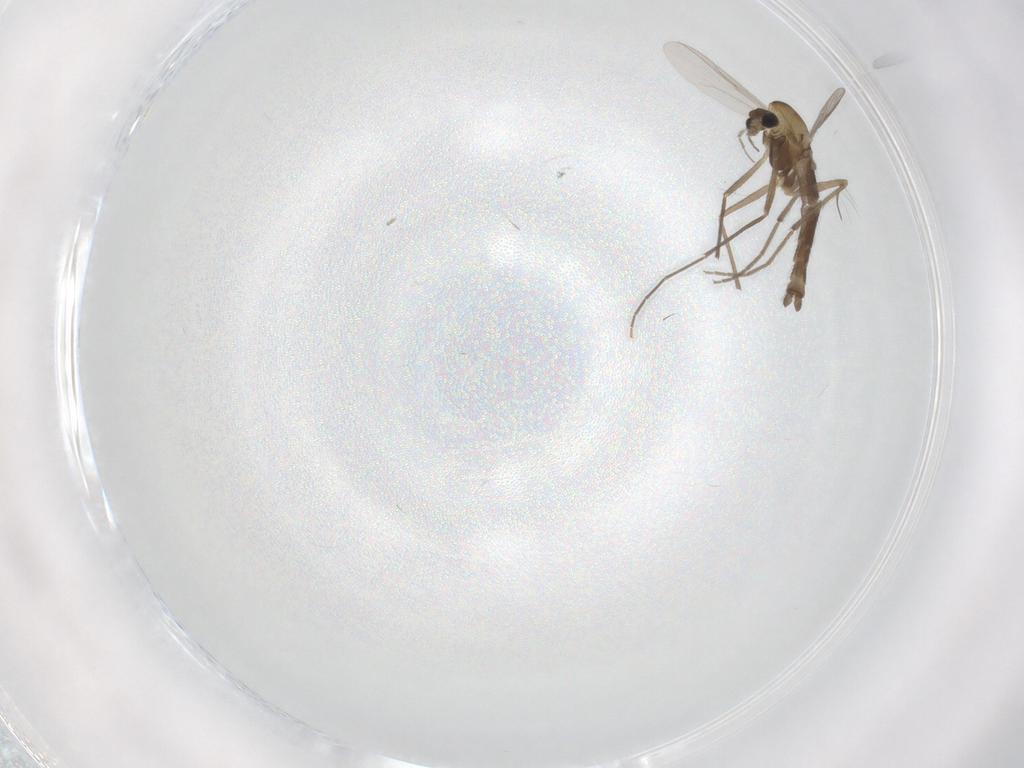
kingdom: Animalia
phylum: Arthropoda
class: Insecta
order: Diptera
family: Chironomidae
